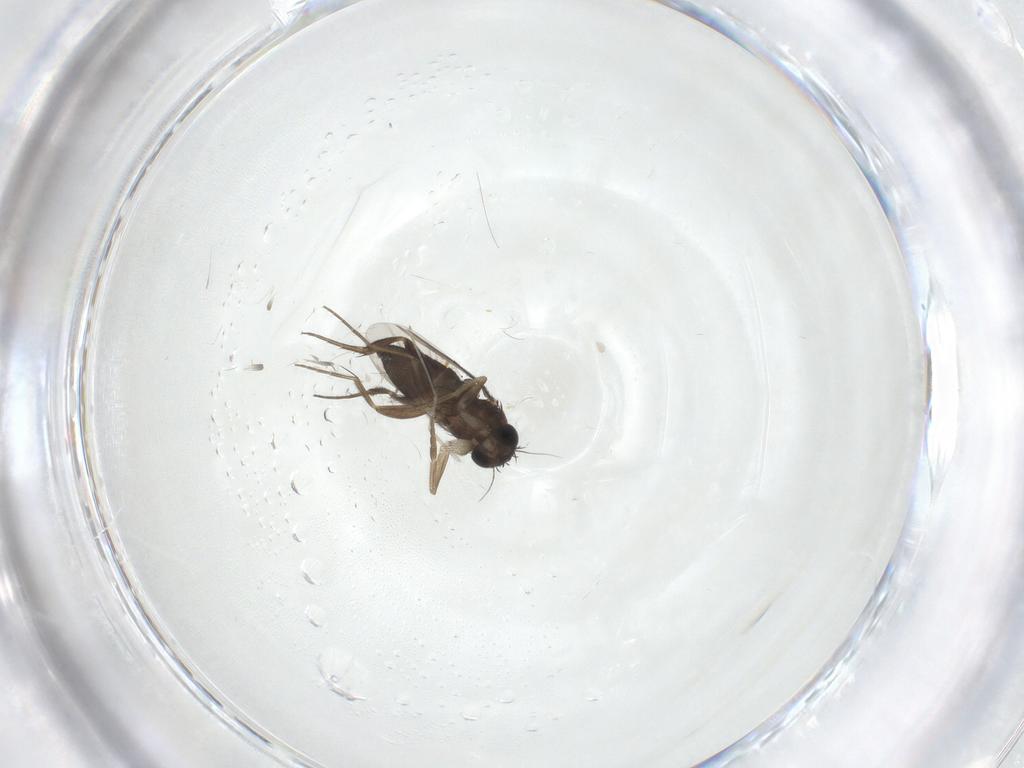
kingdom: Animalia
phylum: Arthropoda
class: Insecta
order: Diptera
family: Phoridae
